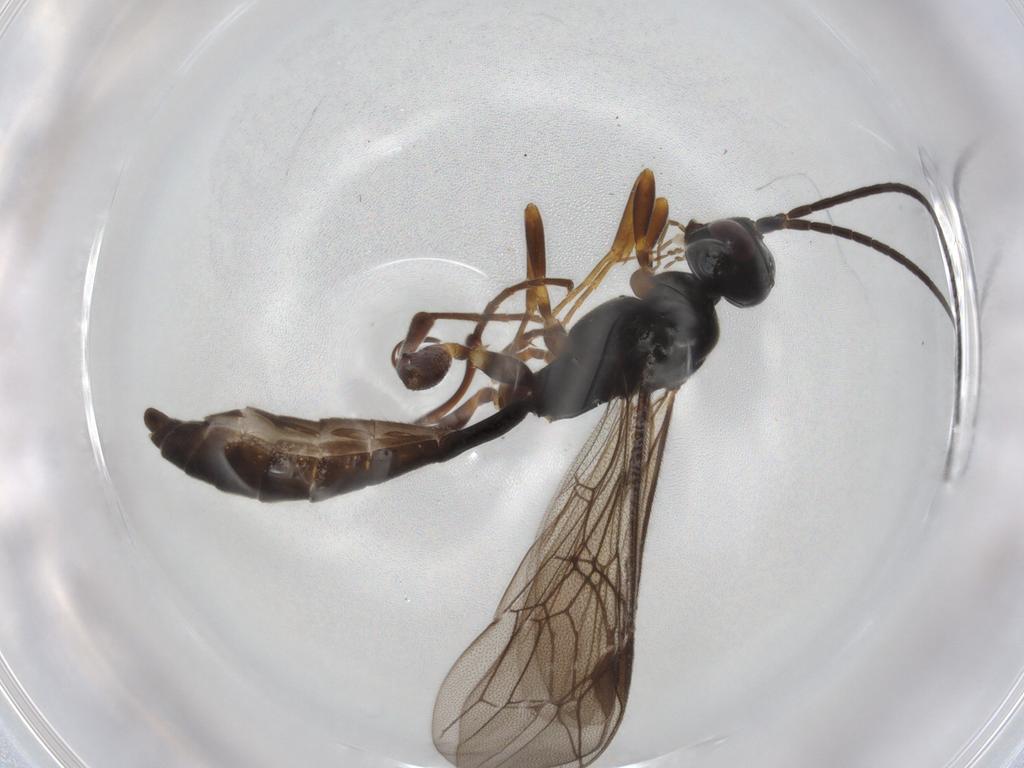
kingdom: Animalia
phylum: Arthropoda
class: Insecta
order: Hymenoptera
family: Ichneumonidae
